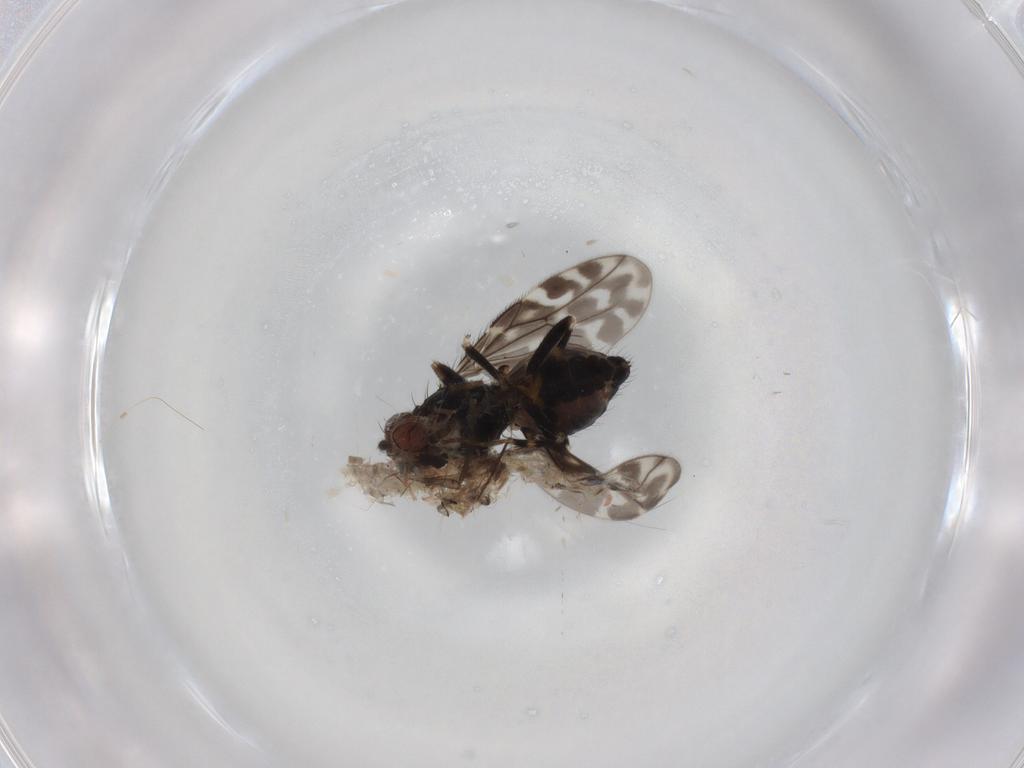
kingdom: Animalia
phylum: Arthropoda
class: Insecta
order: Diptera
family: Sphaeroceridae
